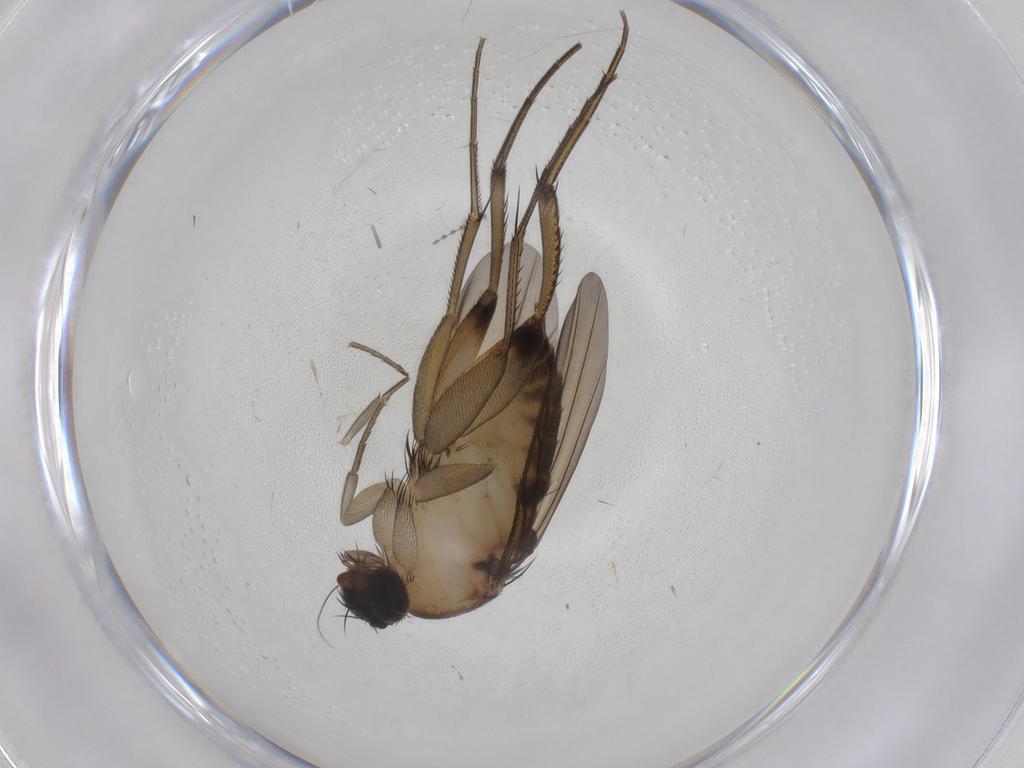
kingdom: Animalia
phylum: Arthropoda
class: Insecta
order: Diptera
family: Phoridae
